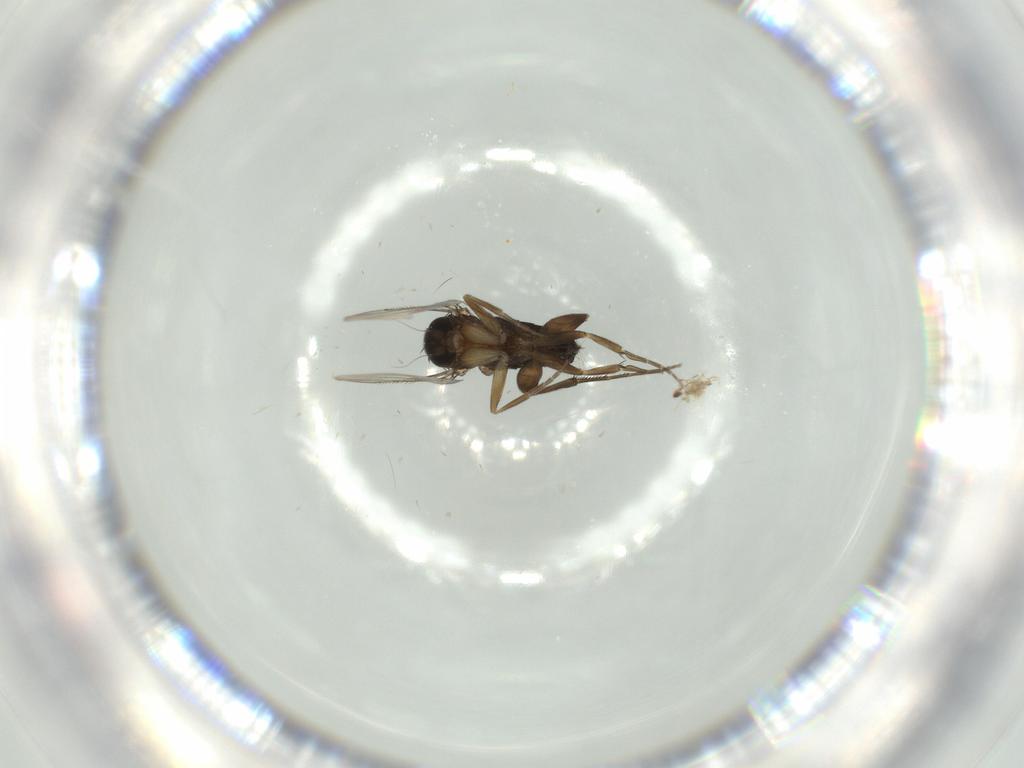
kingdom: Animalia
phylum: Arthropoda
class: Insecta
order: Diptera
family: Phoridae
